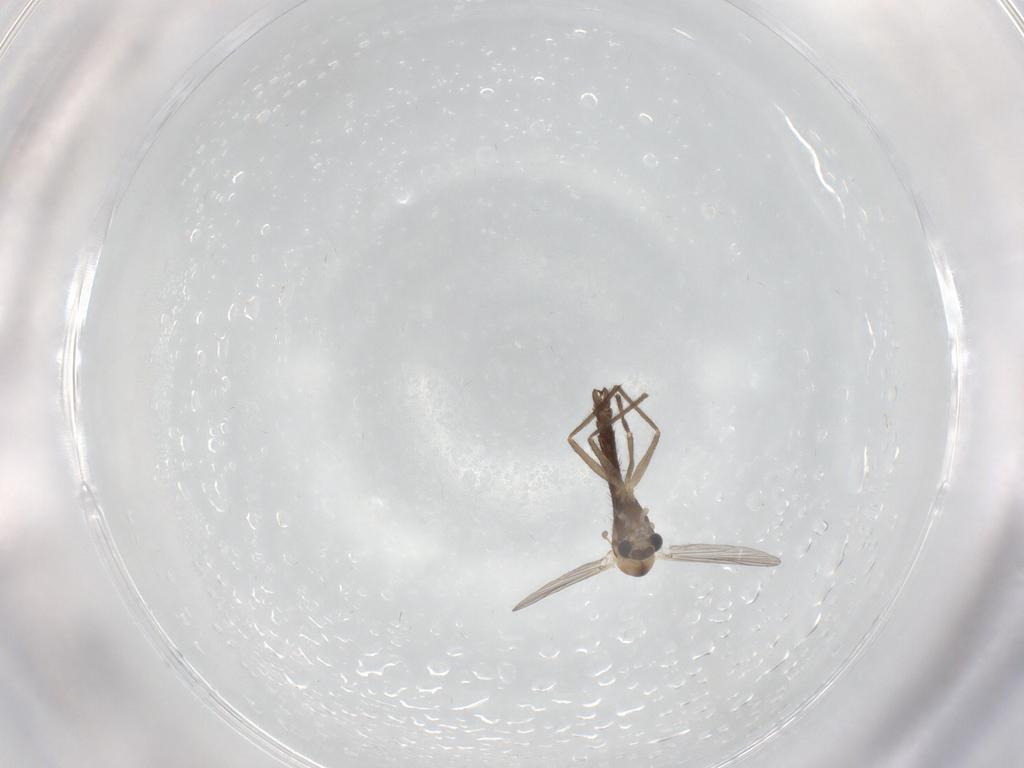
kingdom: Animalia
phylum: Arthropoda
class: Insecta
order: Diptera
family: Chironomidae
